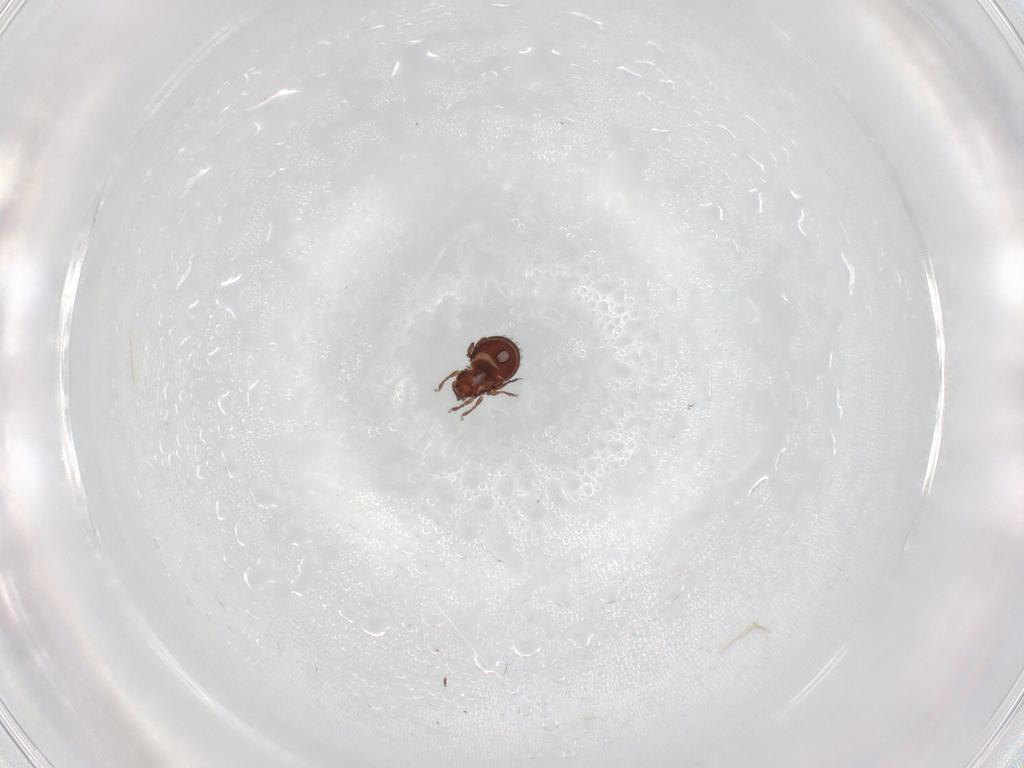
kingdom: Animalia
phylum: Arthropoda
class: Arachnida
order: Sarcoptiformes
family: Oribatulidae
